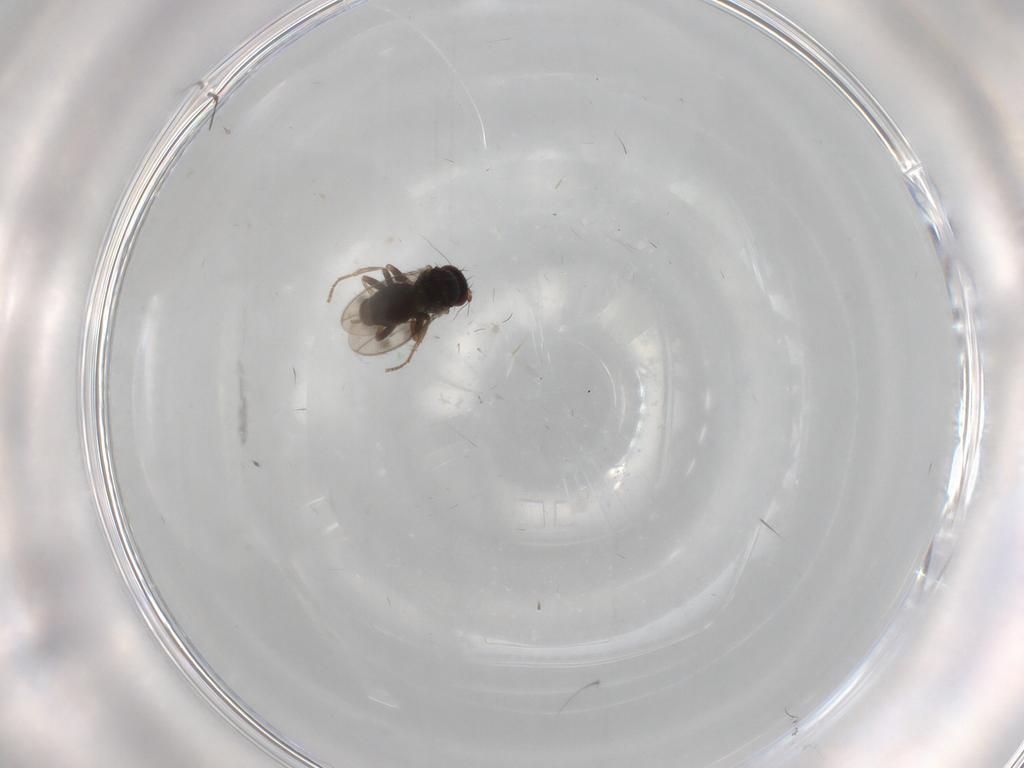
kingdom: Animalia
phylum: Arthropoda
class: Insecta
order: Diptera
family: Sphaeroceridae
